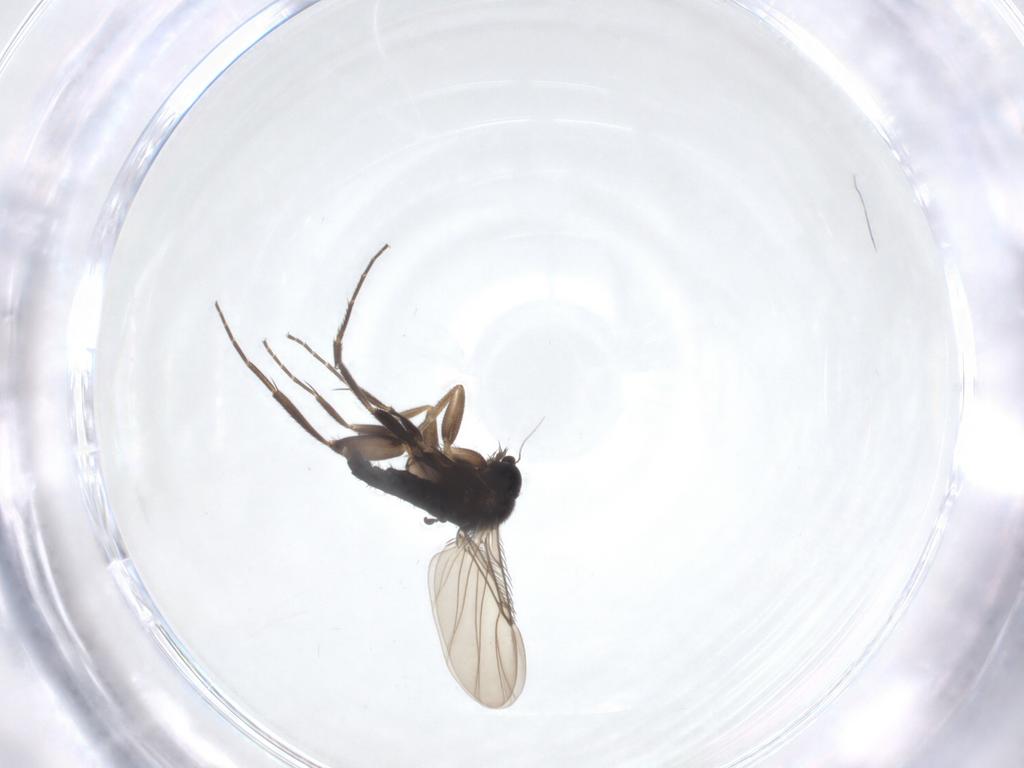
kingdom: Animalia
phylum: Arthropoda
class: Insecta
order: Diptera
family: Phoridae
